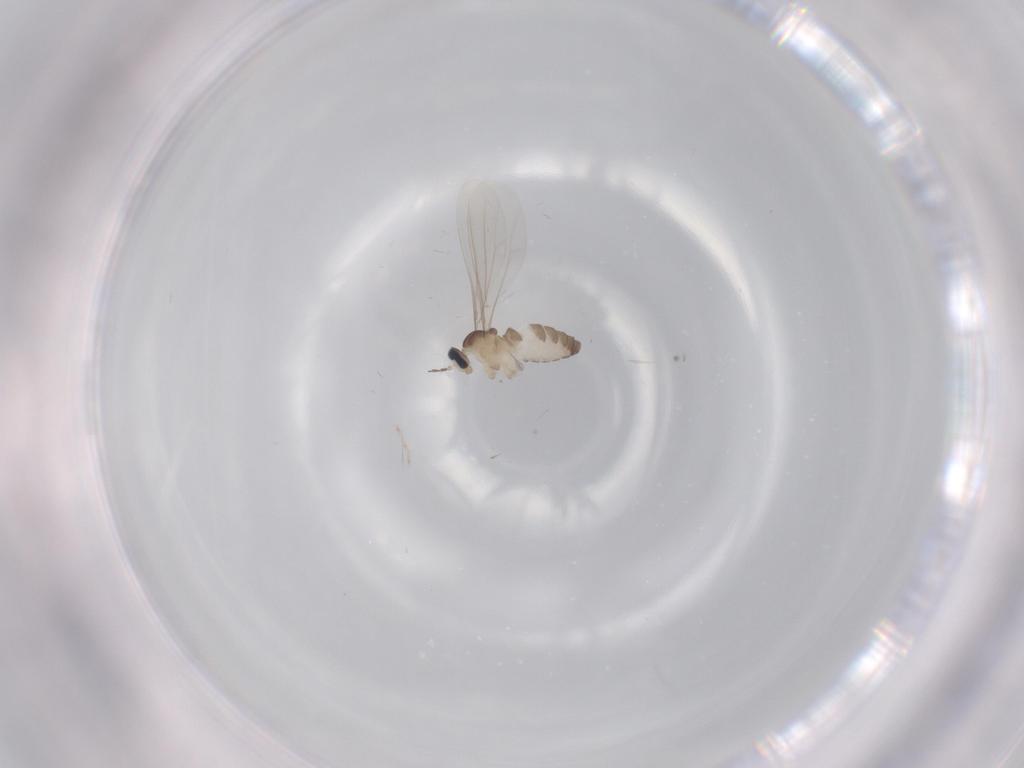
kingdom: Animalia
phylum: Arthropoda
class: Insecta
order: Diptera
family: Cecidomyiidae
